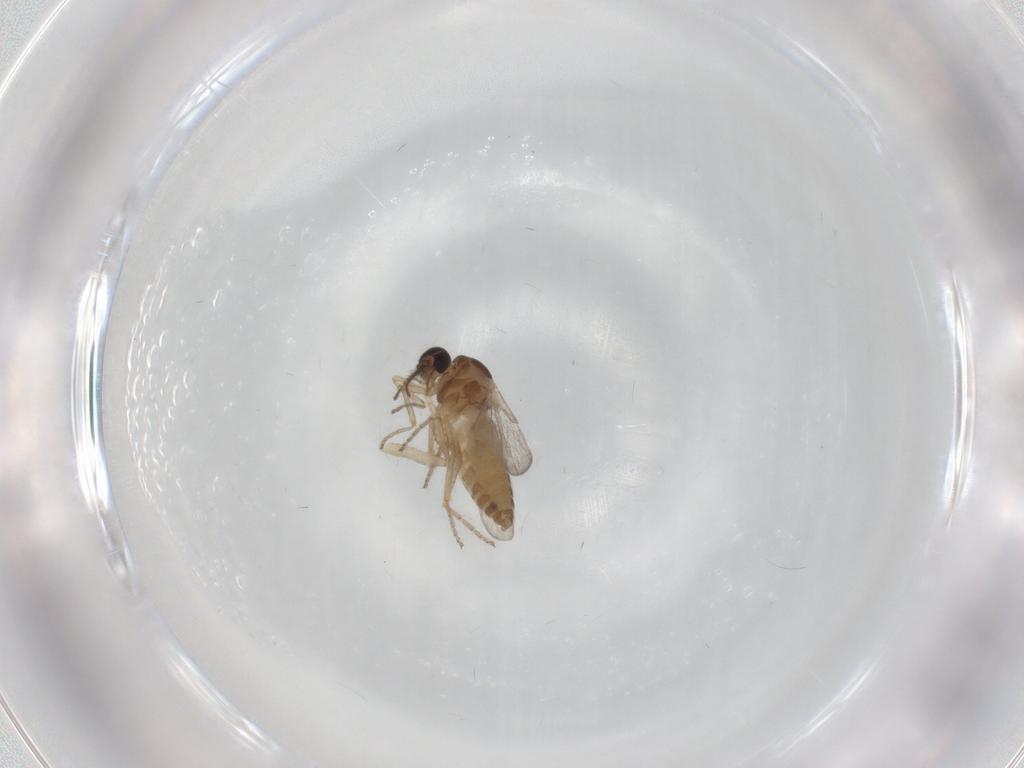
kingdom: Animalia
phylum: Arthropoda
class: Insecta
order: Diptera
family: Ceratopogonidae
